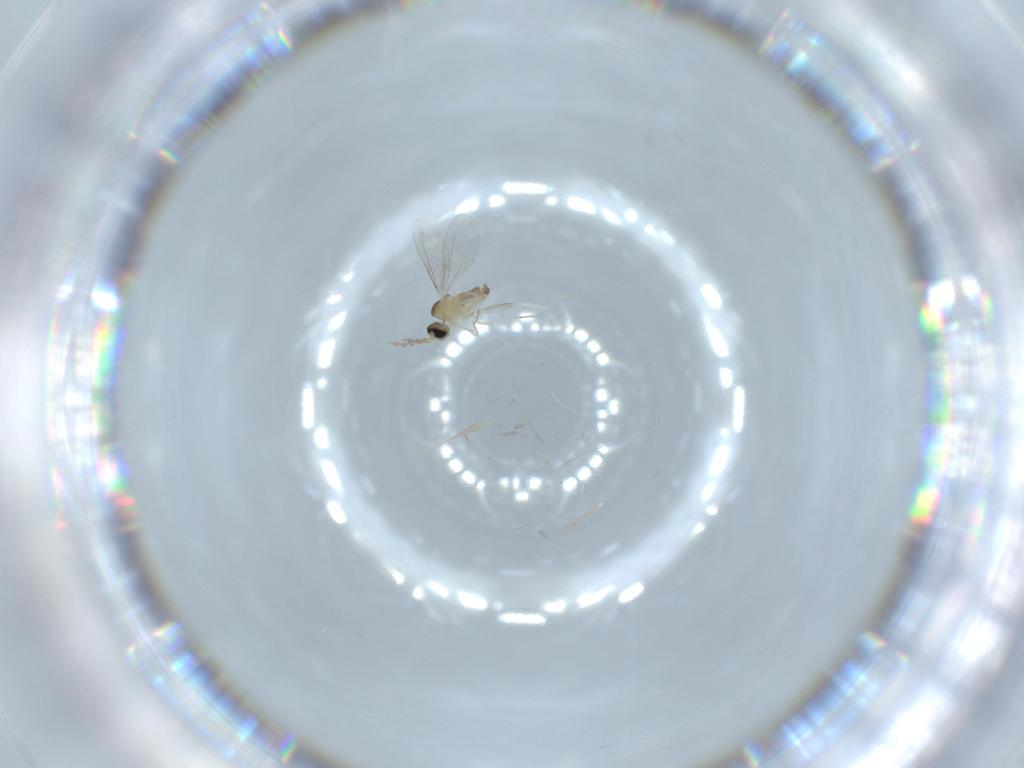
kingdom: Animalia
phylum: Arthropoda
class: Insecta
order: Diptera
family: Cecidomyiidae
